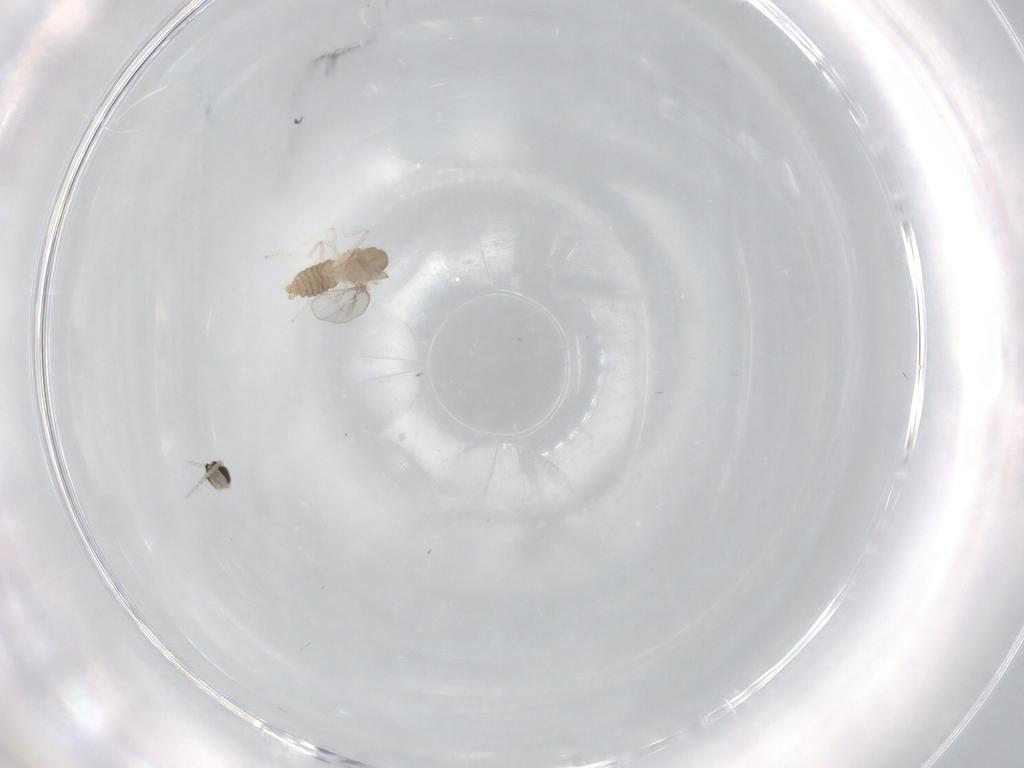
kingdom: Animalia
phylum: Arthropoda
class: Insecta
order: Diptera
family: Cecidomyiidae
